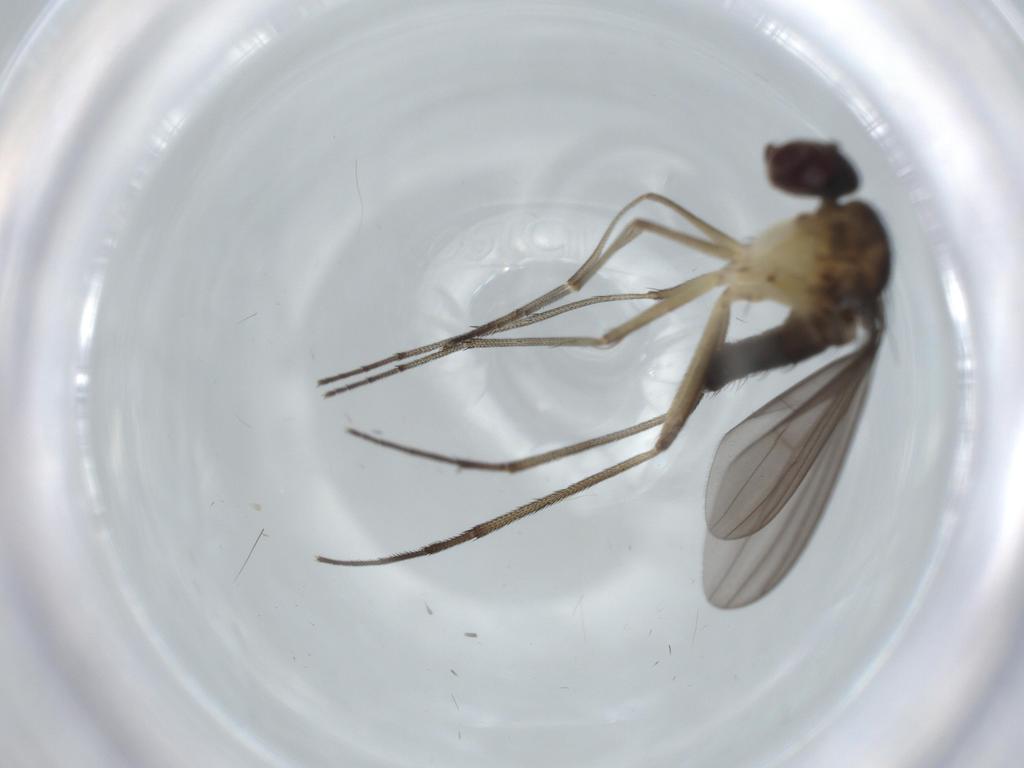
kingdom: Animalia
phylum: Arthropoda
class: Insecta
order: Diptera
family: Dolichopodidae
